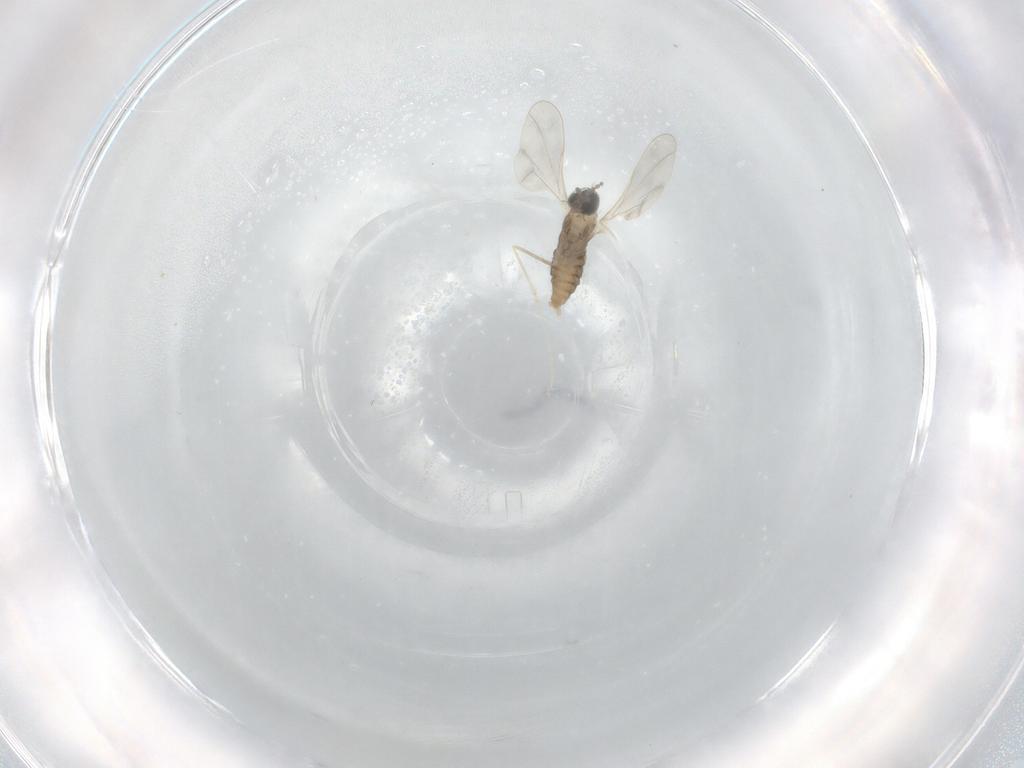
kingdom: Animalia
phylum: Arthropoda
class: Insecta
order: Diptera
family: Cecidomyiidae
